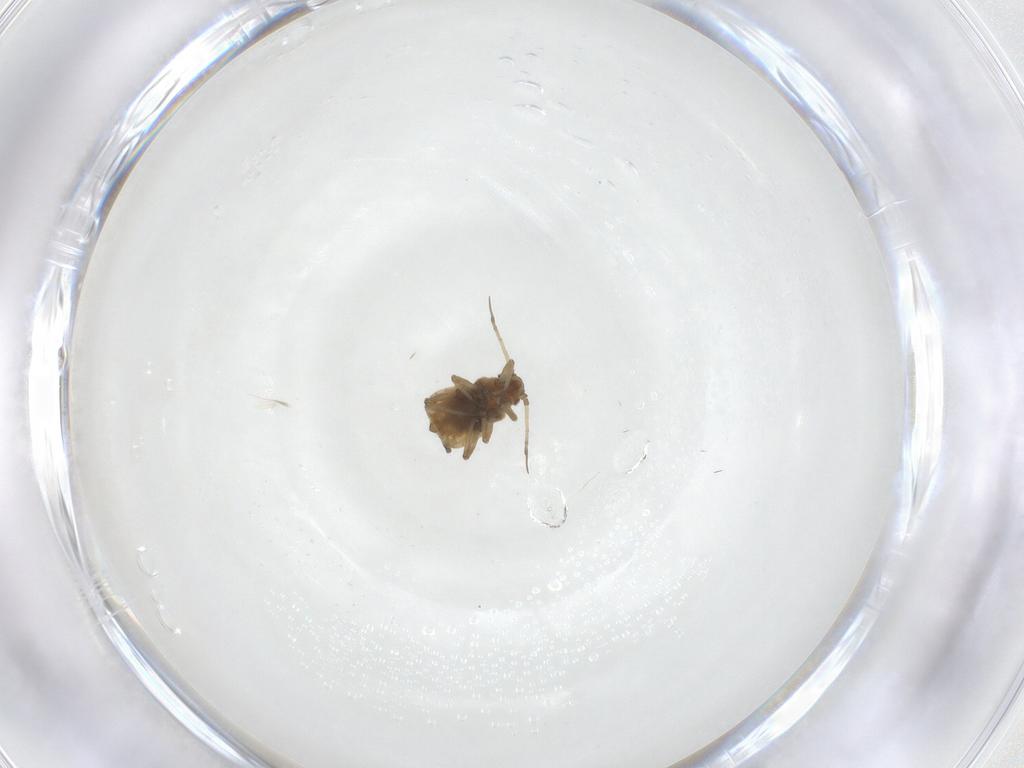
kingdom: Animalia
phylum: Arthropoda
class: Insecta
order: Hemiptera
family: Aphididae
